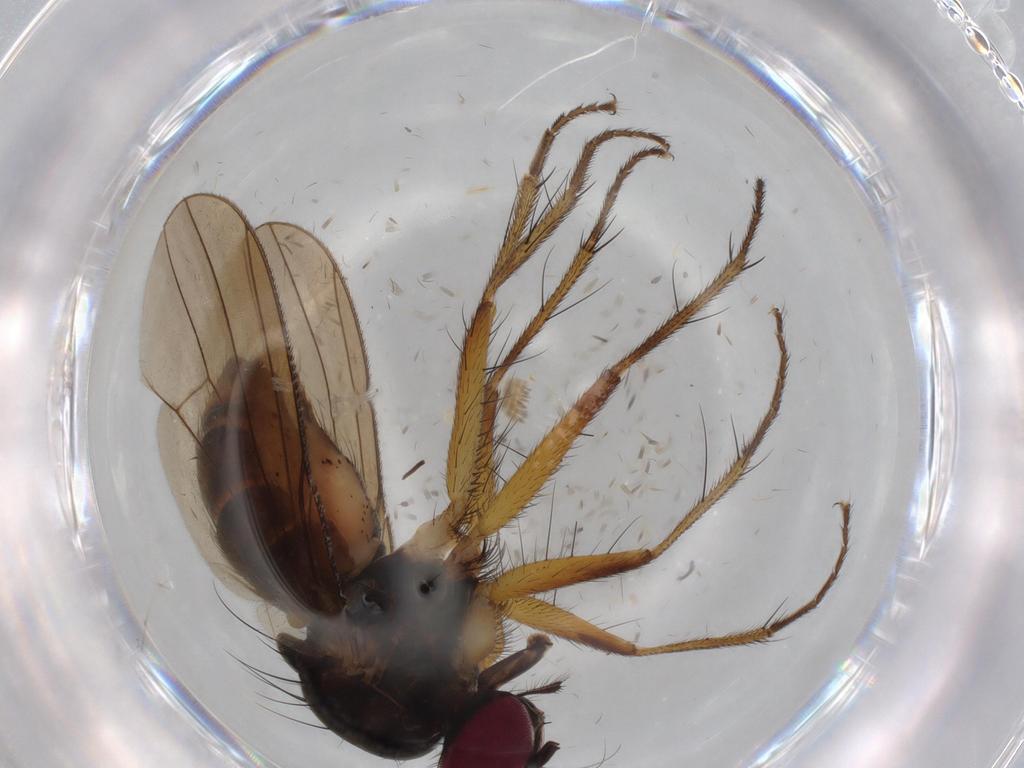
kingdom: Animalia
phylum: Arthropoda
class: Insecta
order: Diptera
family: Anthomyiidae
